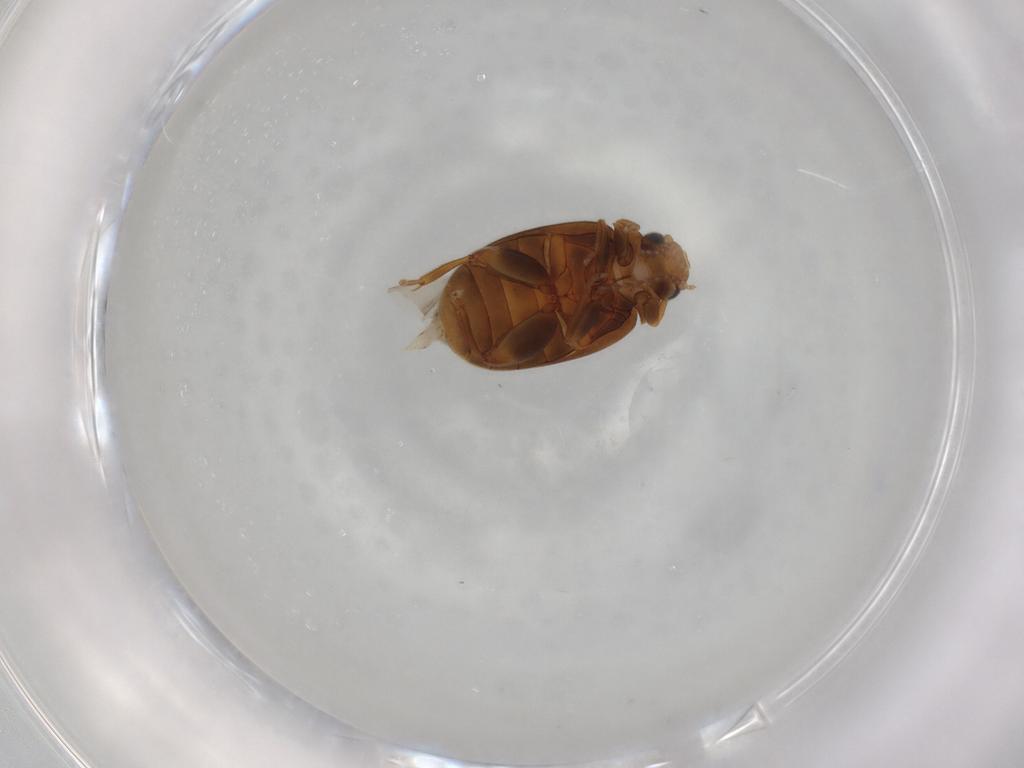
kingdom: Animalia
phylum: Arthropoda
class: Insecta
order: Coleoptera
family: Scirtidae
